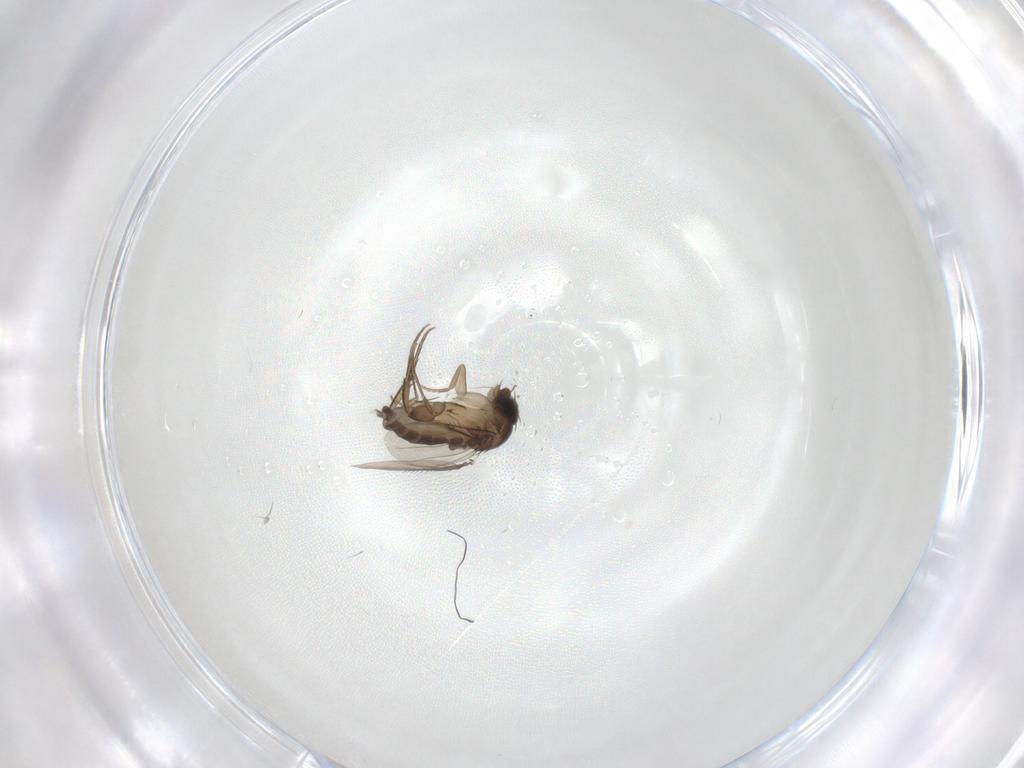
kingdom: Animalia
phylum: Arthropoda
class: Insecta
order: Diptera
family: Phoridae
